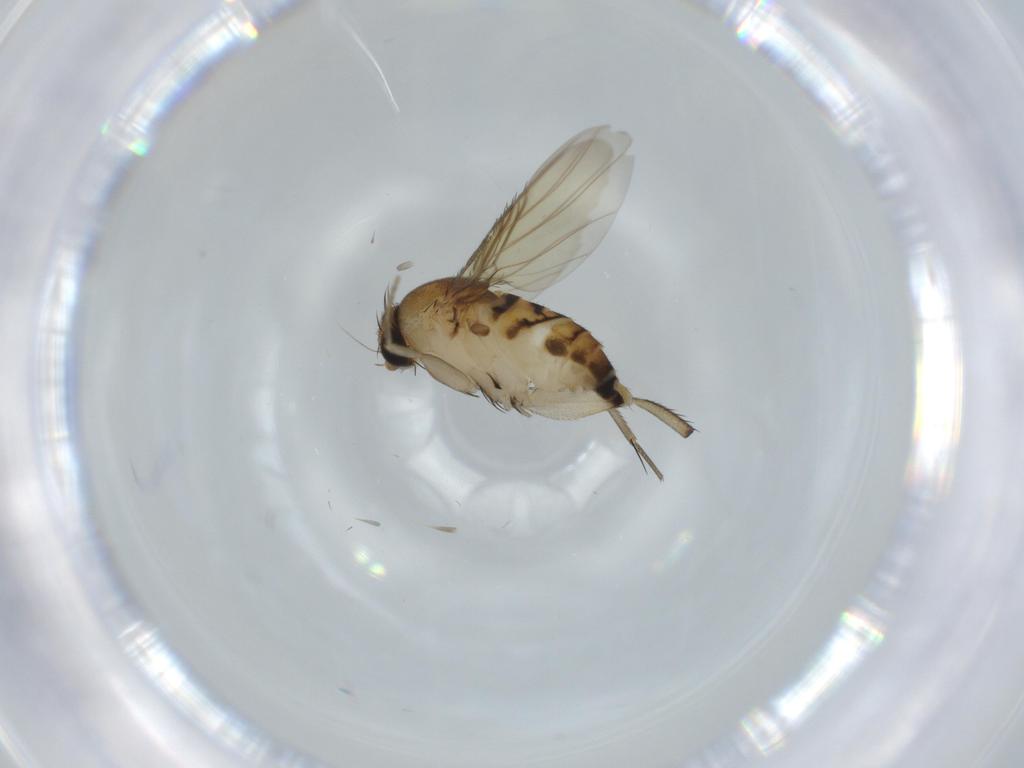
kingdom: Animalia
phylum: Arthropoda
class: Insecta
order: Diptera
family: Phoridae
